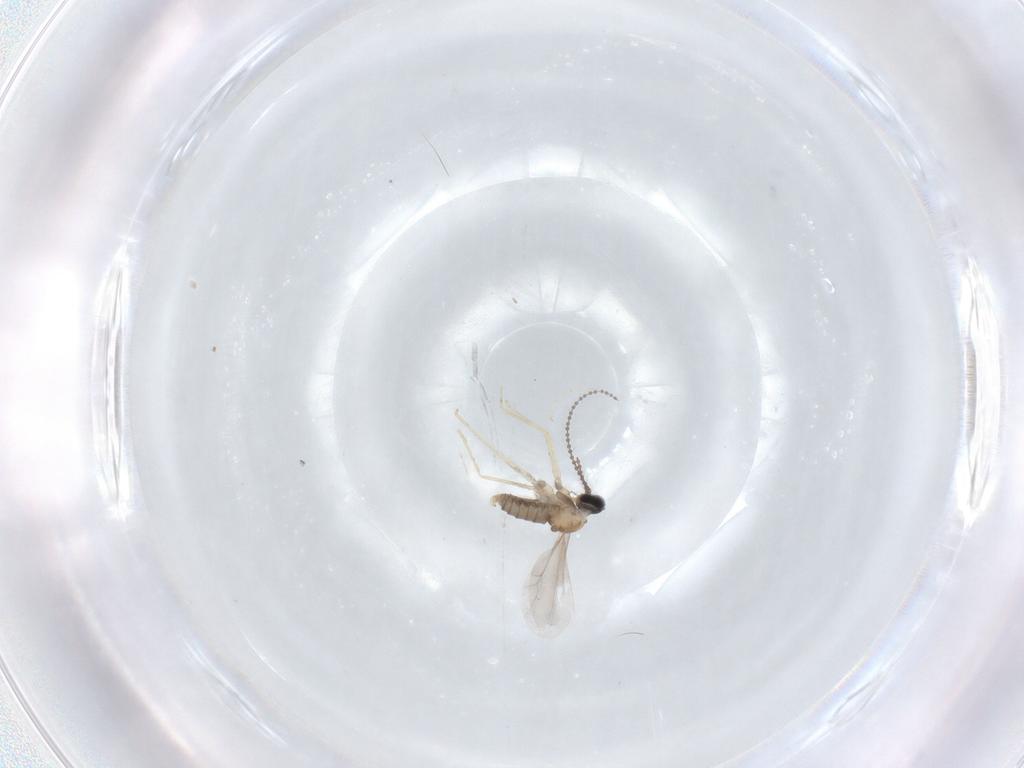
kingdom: Animalia
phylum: Arthropoda
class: Insecta
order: Diptera
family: Cecidomyiidae
